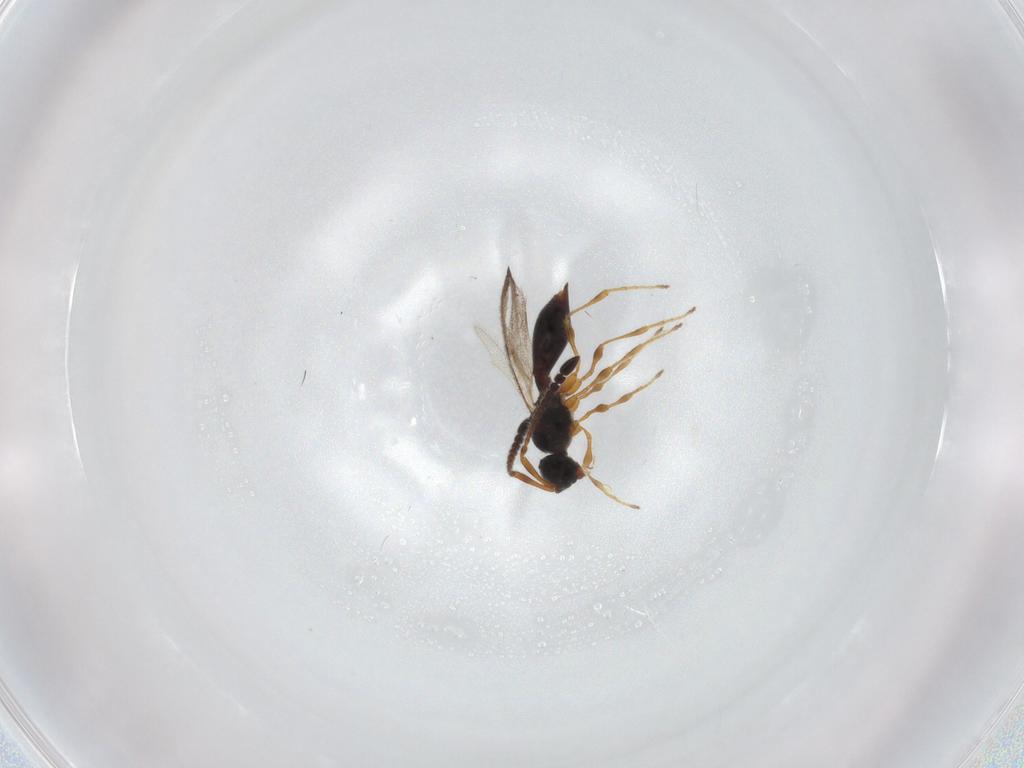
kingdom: Animalia
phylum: Arthropoda
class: Insecta
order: Hymenoptera
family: Diapriidae
